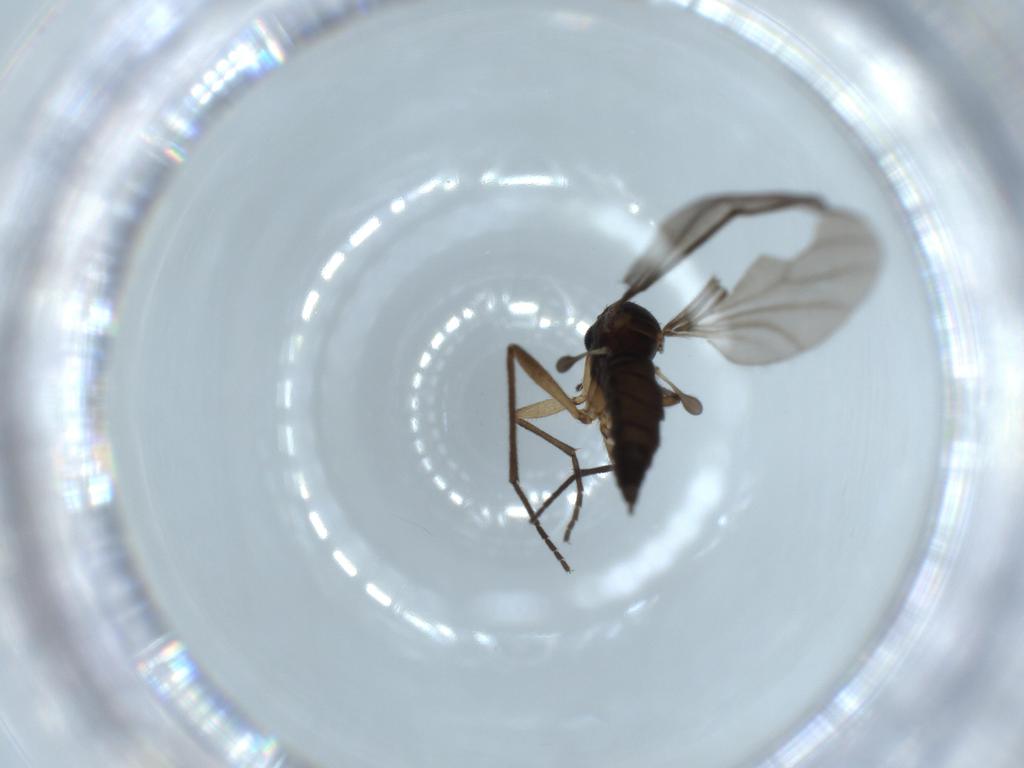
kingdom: Animalia
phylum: Arthropoda
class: Insecta
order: Diptera
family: Sciaridae
